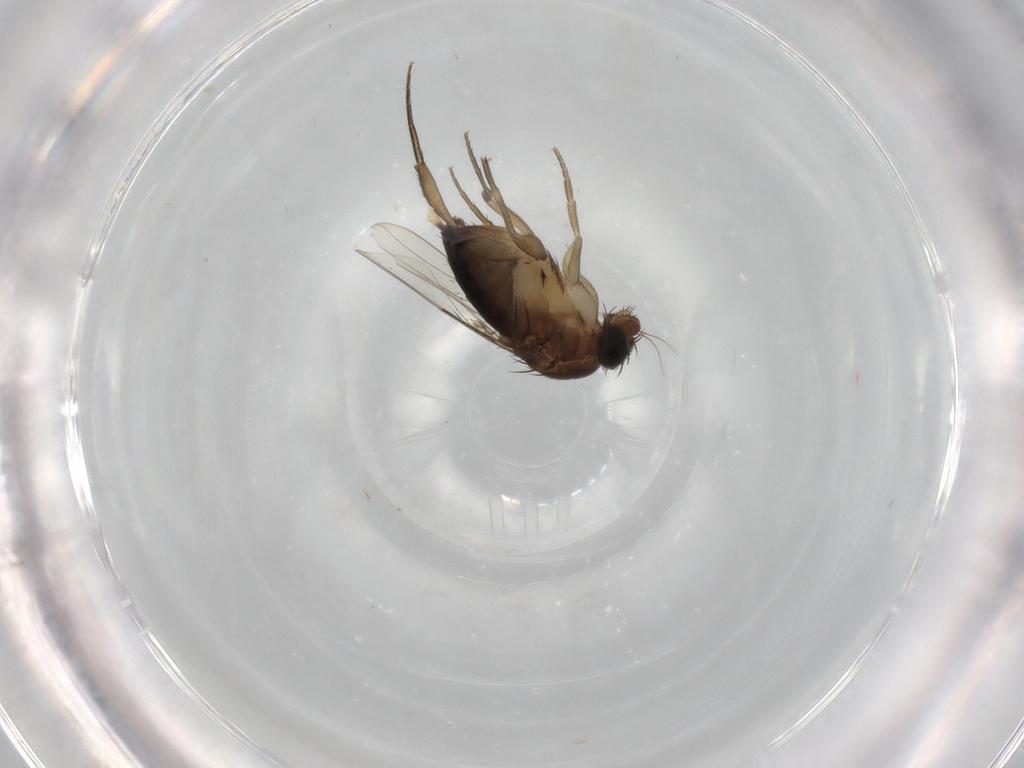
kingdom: Animalia
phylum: Arthropoda
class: Insecta
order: Diptera
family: Phoridae
